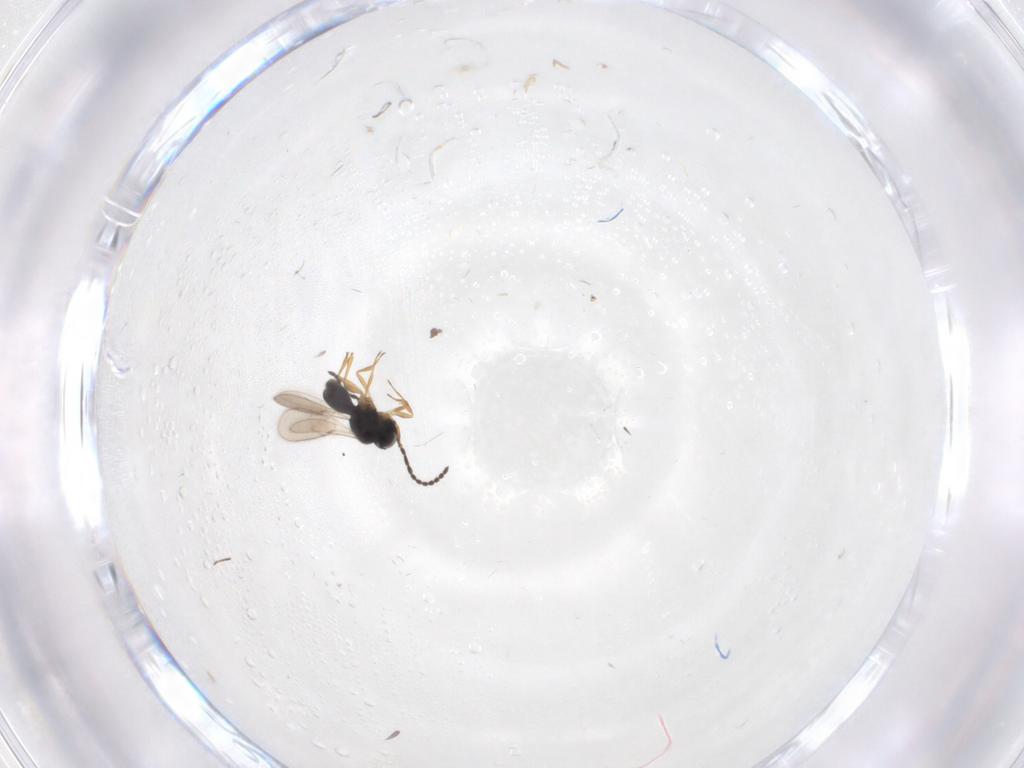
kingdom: Animalia
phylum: Arthropoda
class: Insecta
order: Hymenoptera
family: Scelionidae
